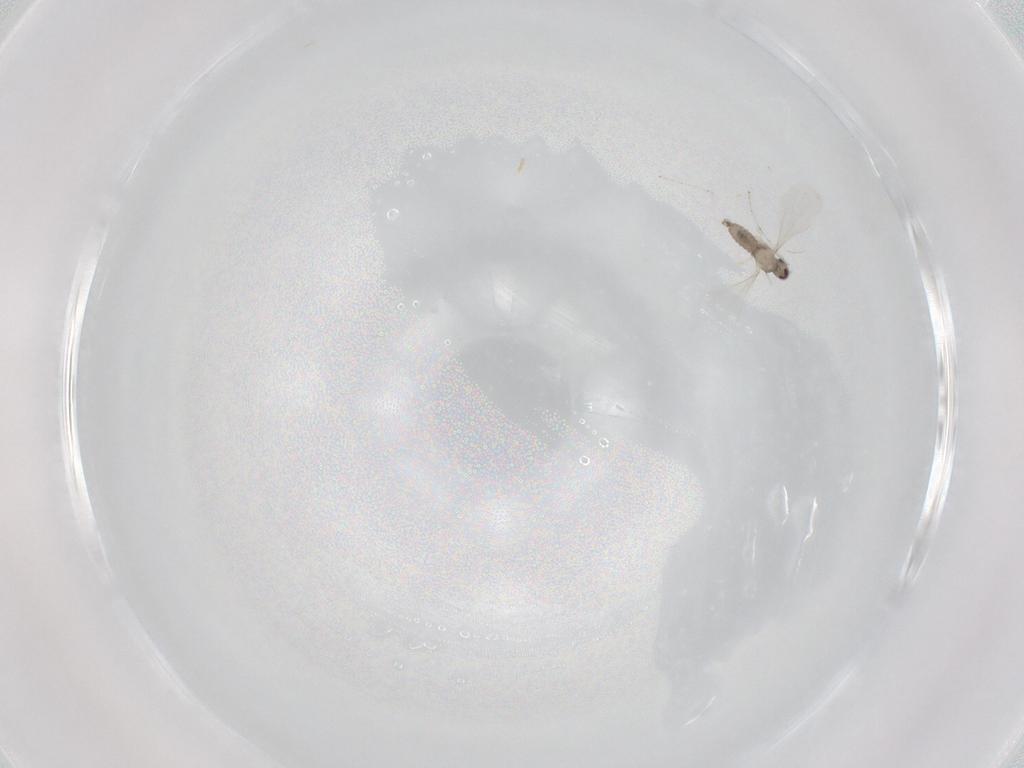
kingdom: Animalia
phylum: Arthropoda
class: Insecta
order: Diptera
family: Cecidomyiidae
